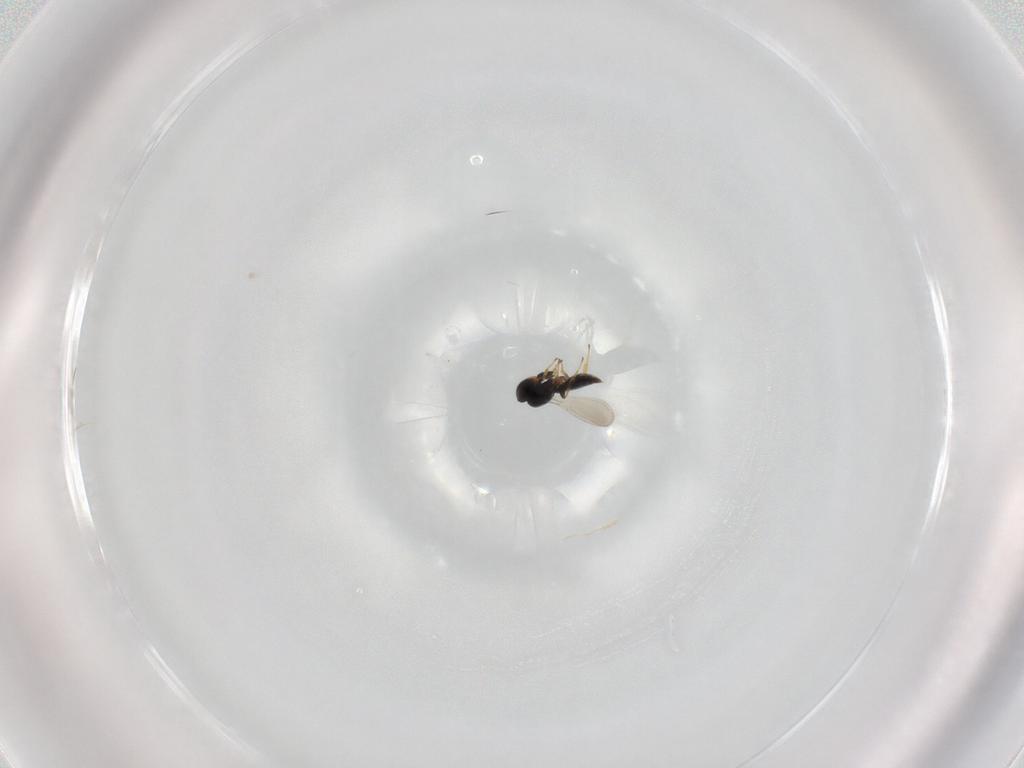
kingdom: Animalia
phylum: Arthropoda
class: Insecta
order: Hymenoptera
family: Platygastridae
